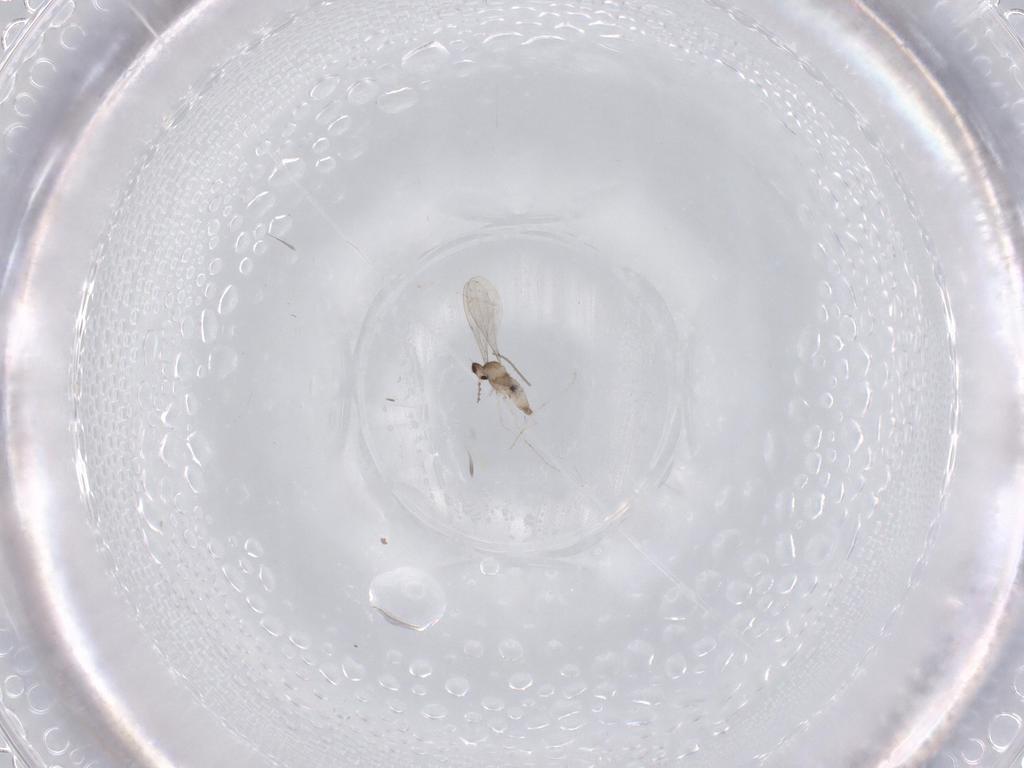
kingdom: Animalia
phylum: Arthropoda
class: Insecta
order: Diptera
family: Cecidomyiidae
